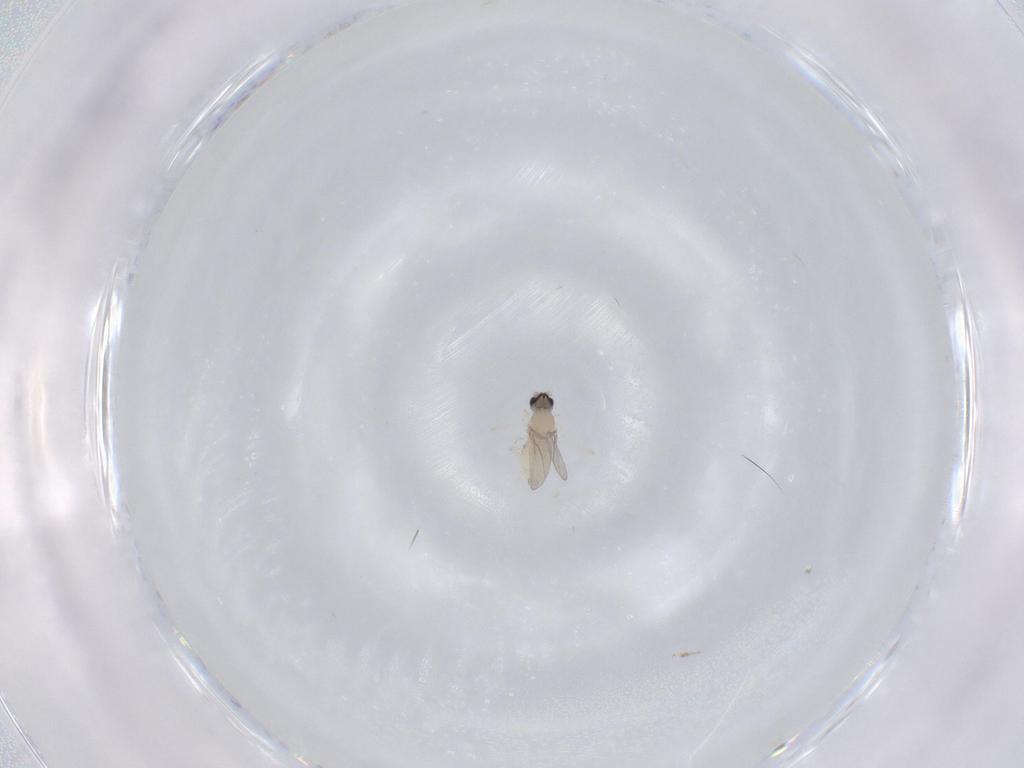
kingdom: Animalia
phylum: Arthropoda
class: Insecta
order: Diptera
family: Cecidomyiidae
